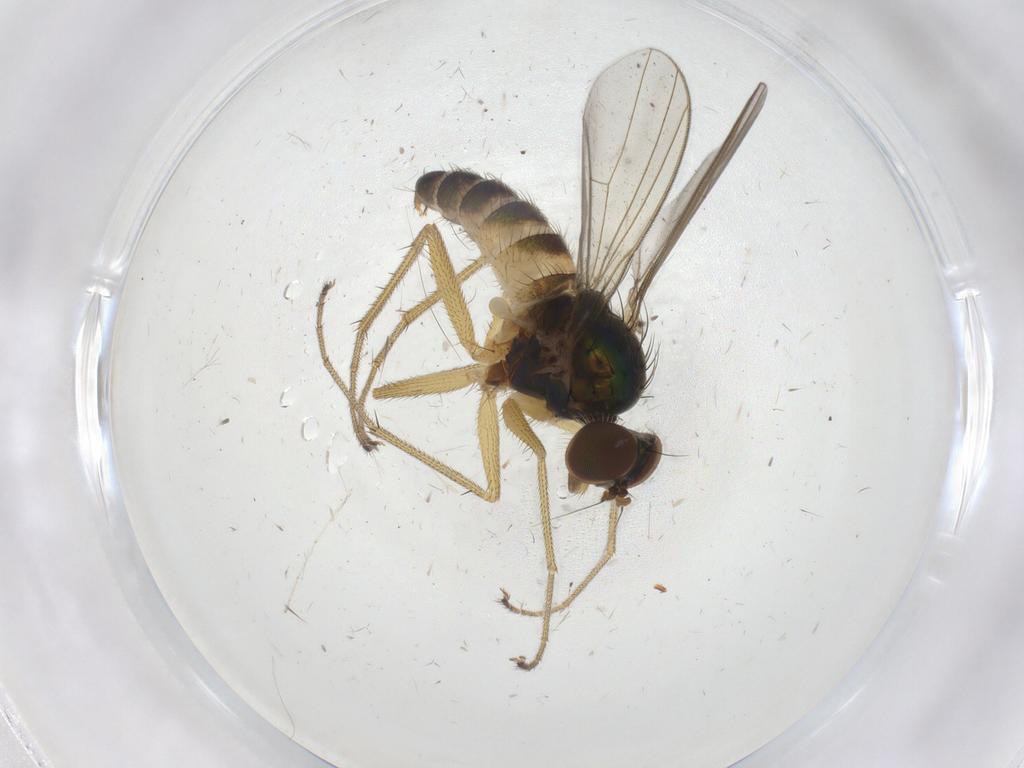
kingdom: Animalia
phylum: Arthropoda
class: Insecta
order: Diptera
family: Dolichopodidae
